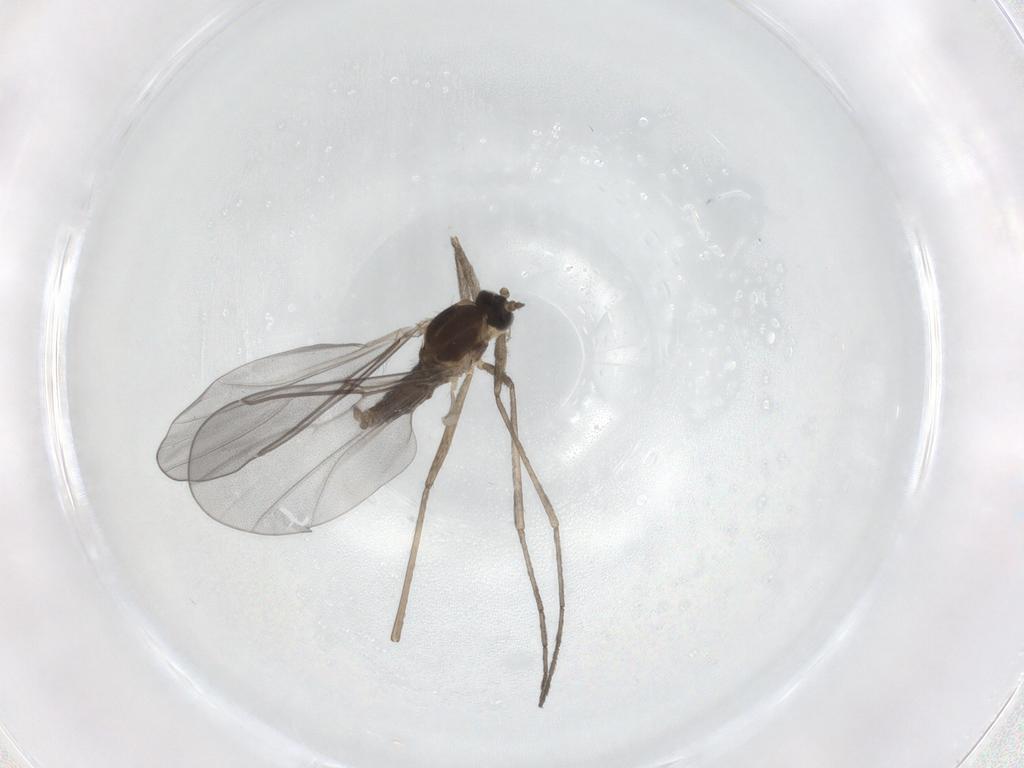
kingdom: Animalia
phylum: Arthropoda
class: Insecta
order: Diptera
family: Cecidomyiidae
